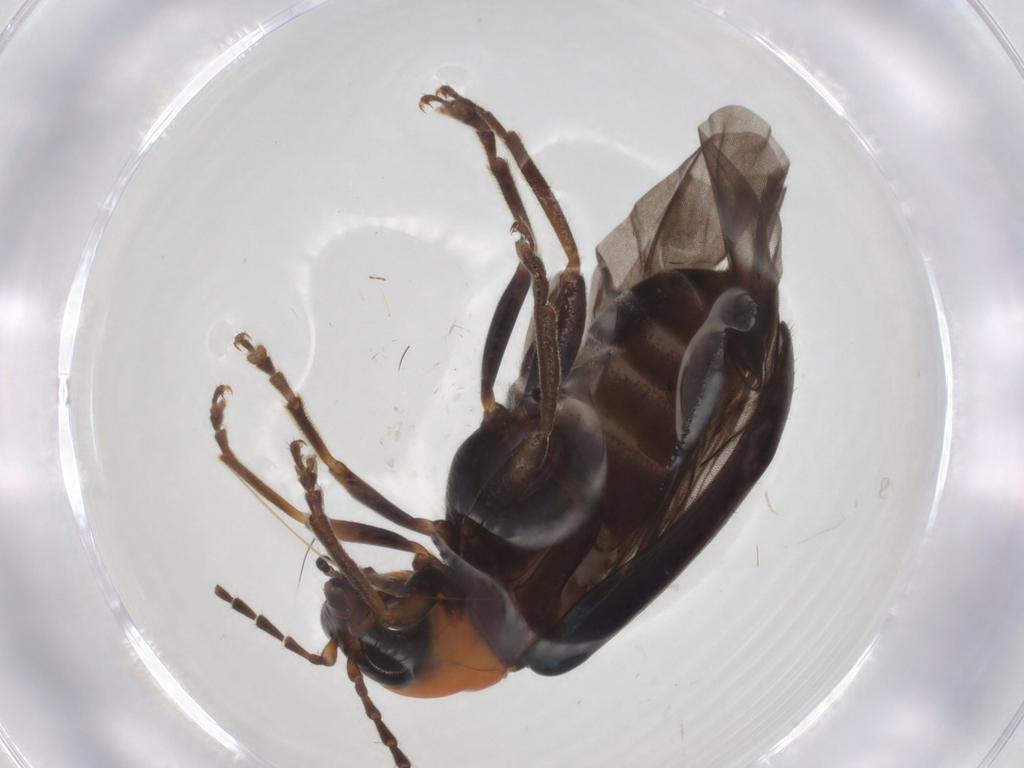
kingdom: Animalia
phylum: Arthropoda
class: Insecta
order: Coleoptera
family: Chrysomelidae
